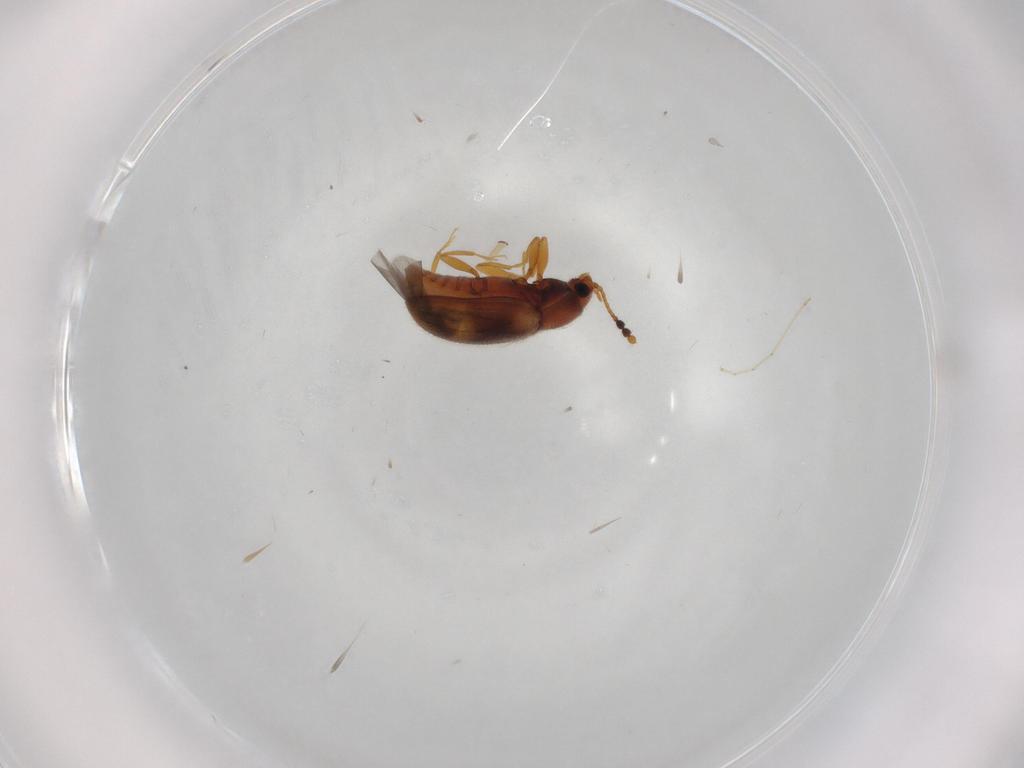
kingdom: Animalia
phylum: Arthropoda
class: Insecta
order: Coleoptera
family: Erotylidae
